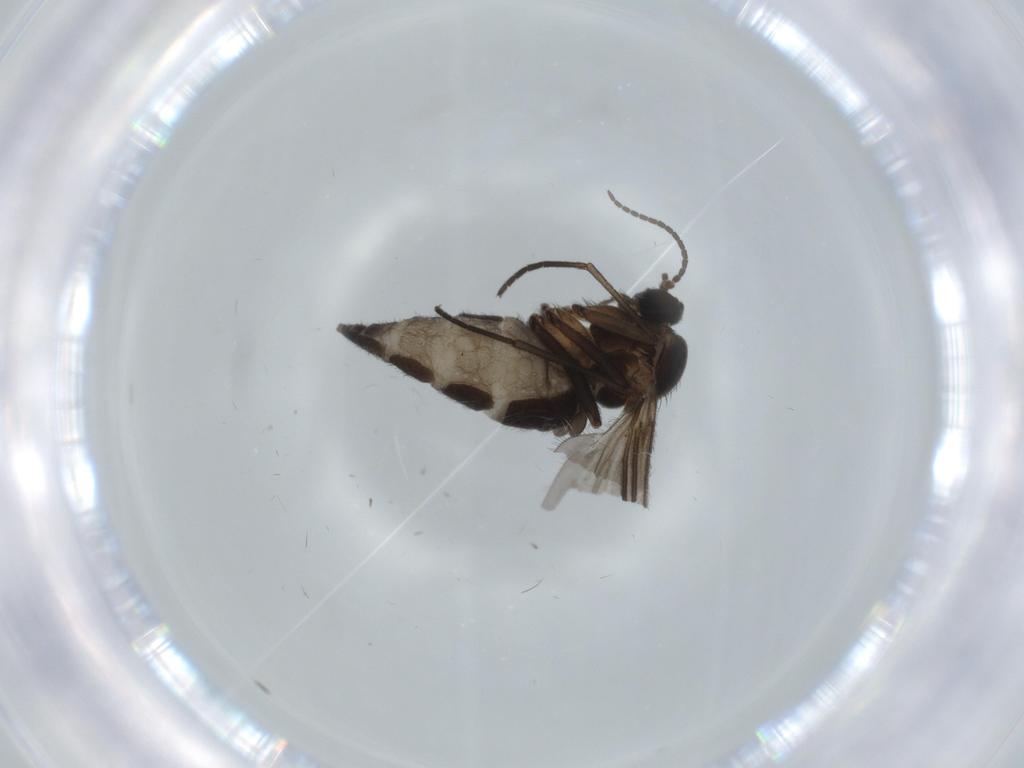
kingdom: Animalia
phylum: Arthropoda
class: Insecta
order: Diptera
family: Sciaridae
